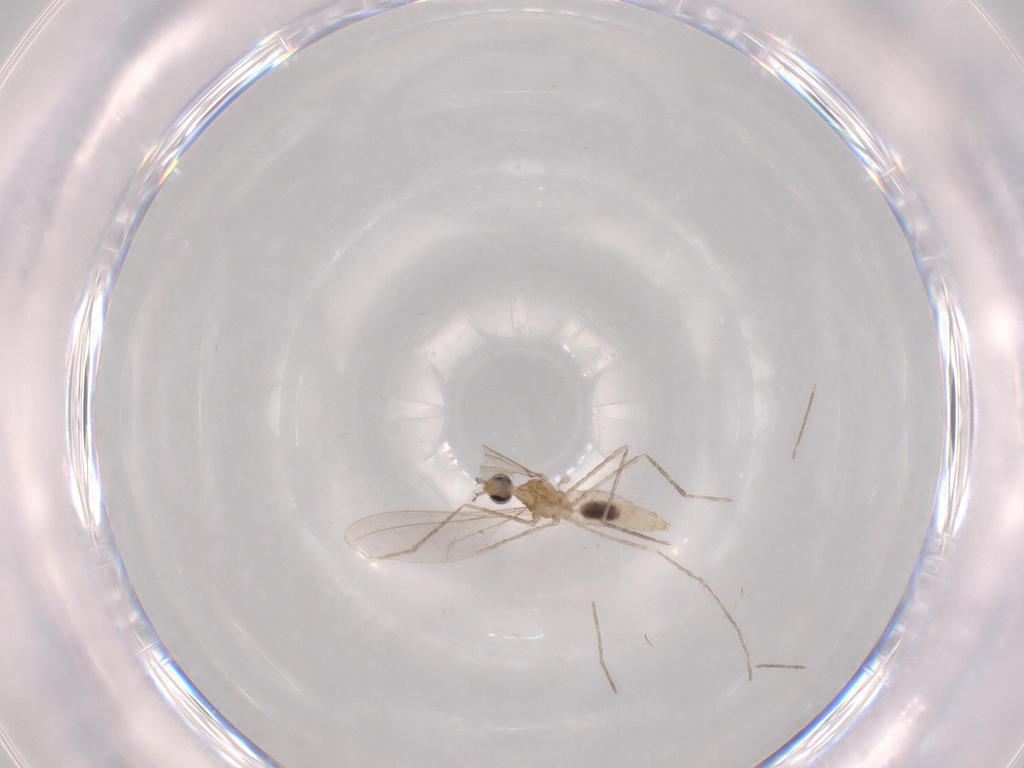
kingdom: Animalia
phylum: Arthropoda
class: Insecta
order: Diptera
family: Cecidomyiidae
